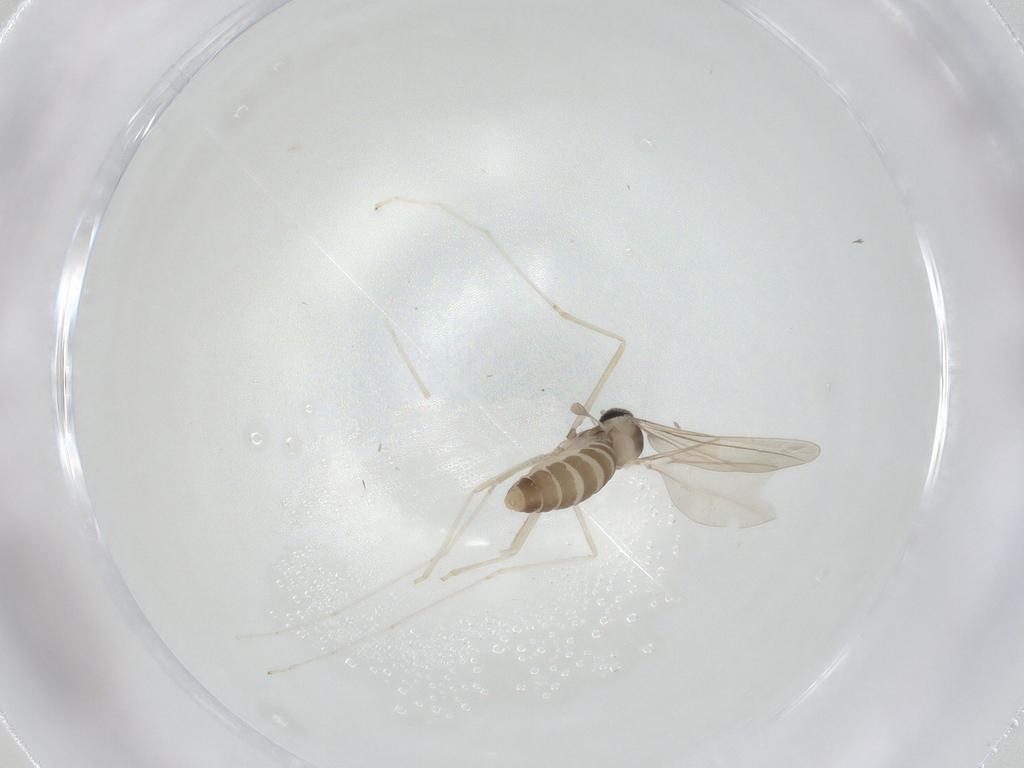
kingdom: Animalia
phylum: Arthropoda
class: Insecta
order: Diptera
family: Cecidomyiidae
